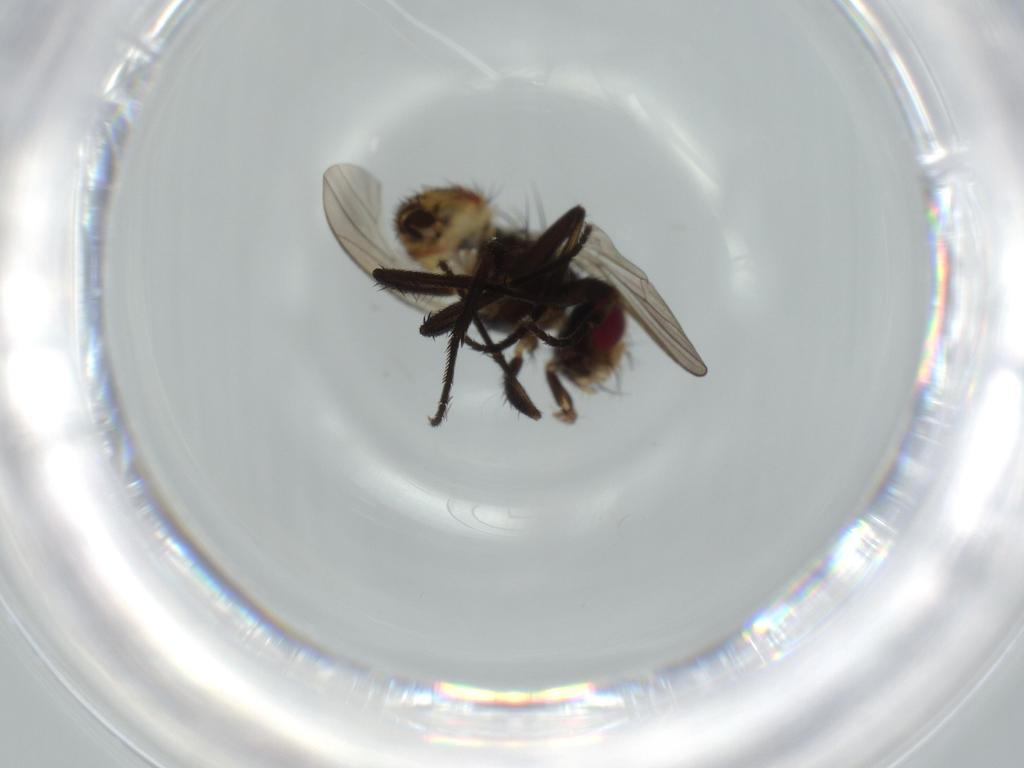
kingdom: Animalia
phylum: Arthropoda
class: Insecta
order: Diptera
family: Anthomyiidae
